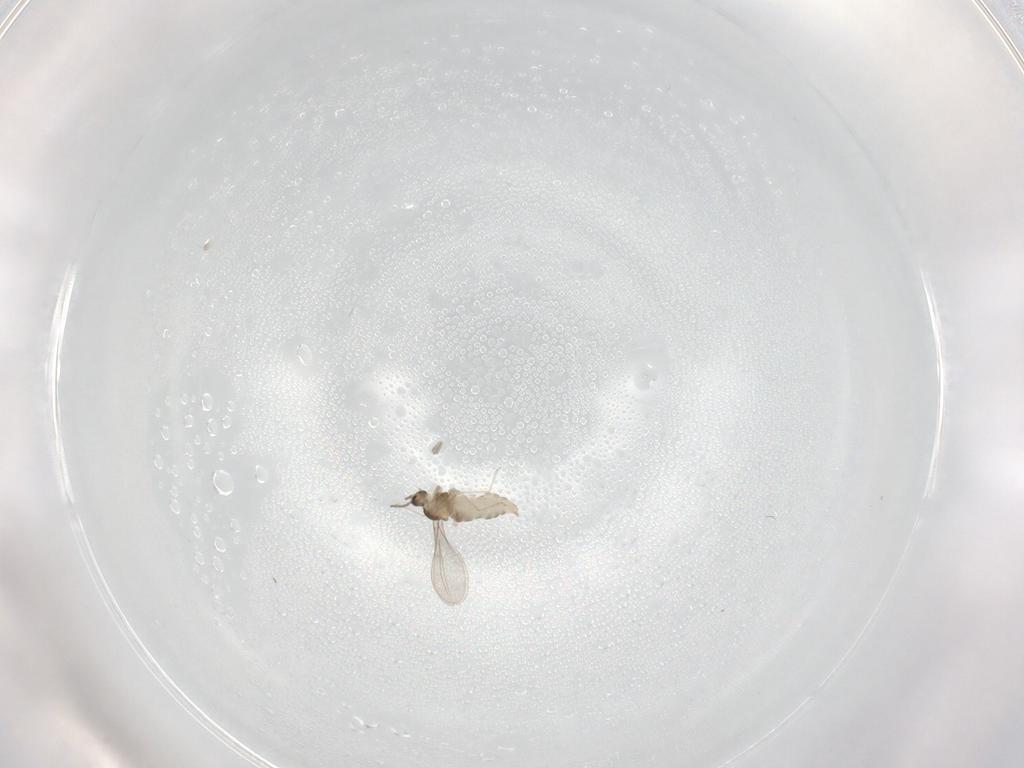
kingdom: Animalia
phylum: Arthropoda
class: Insecta
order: Diptera
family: Cecidomyiidae
